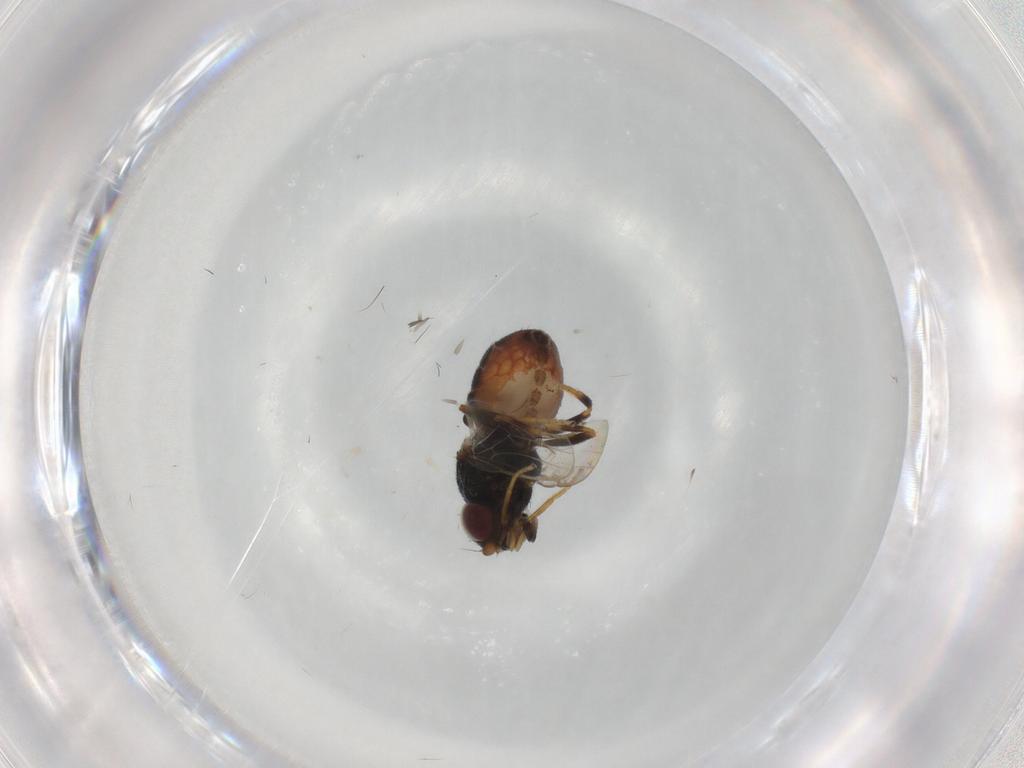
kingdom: Animalia
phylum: Arthropoda
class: Insecta
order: Diptera
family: Chloropidae
